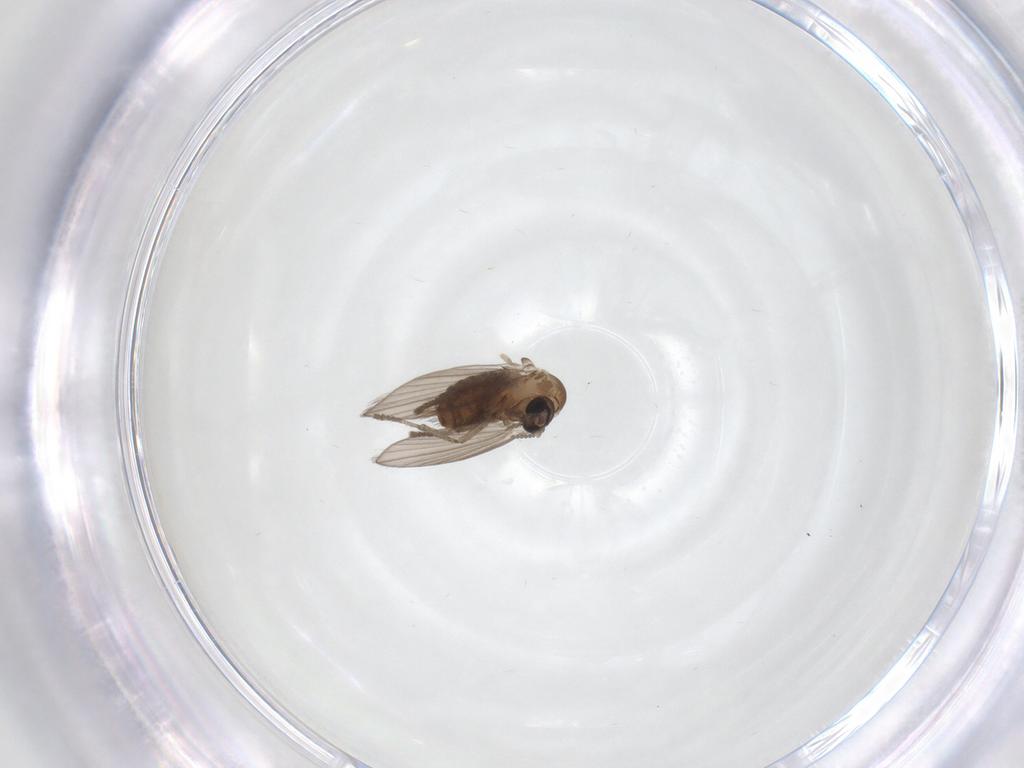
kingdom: Animalia
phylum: Arthropoda
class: Insecta
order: Diptera
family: Psychodidae
